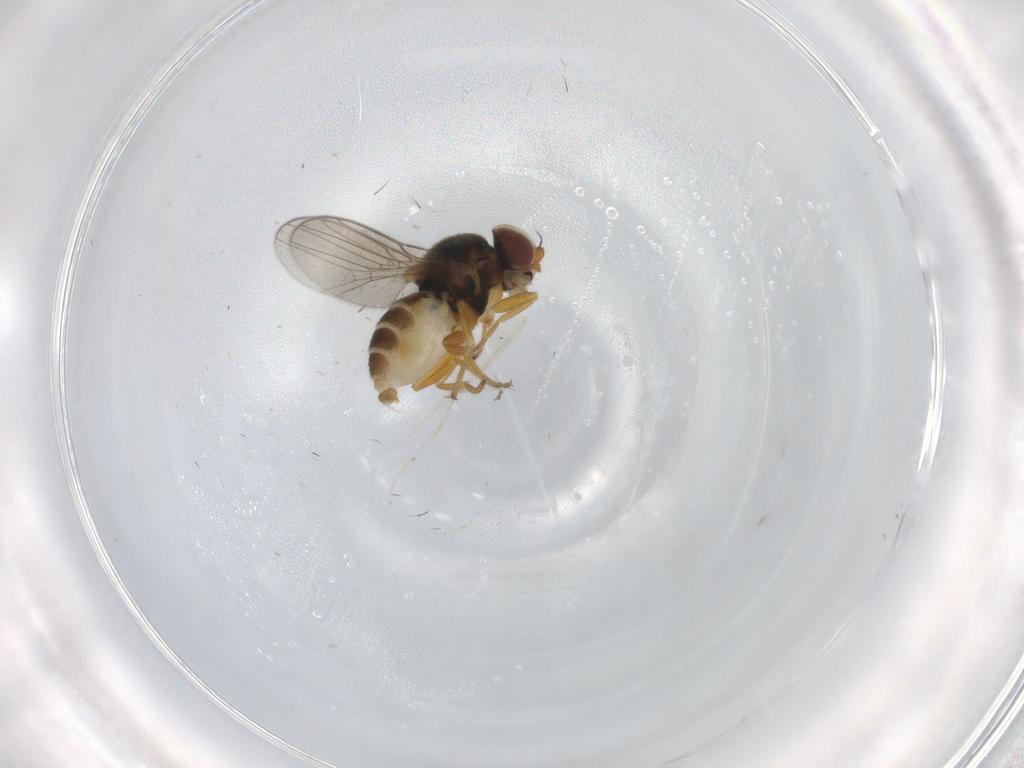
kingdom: Animalia
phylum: Arthropoda
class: Insecta
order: Diptera
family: Chloropidae
